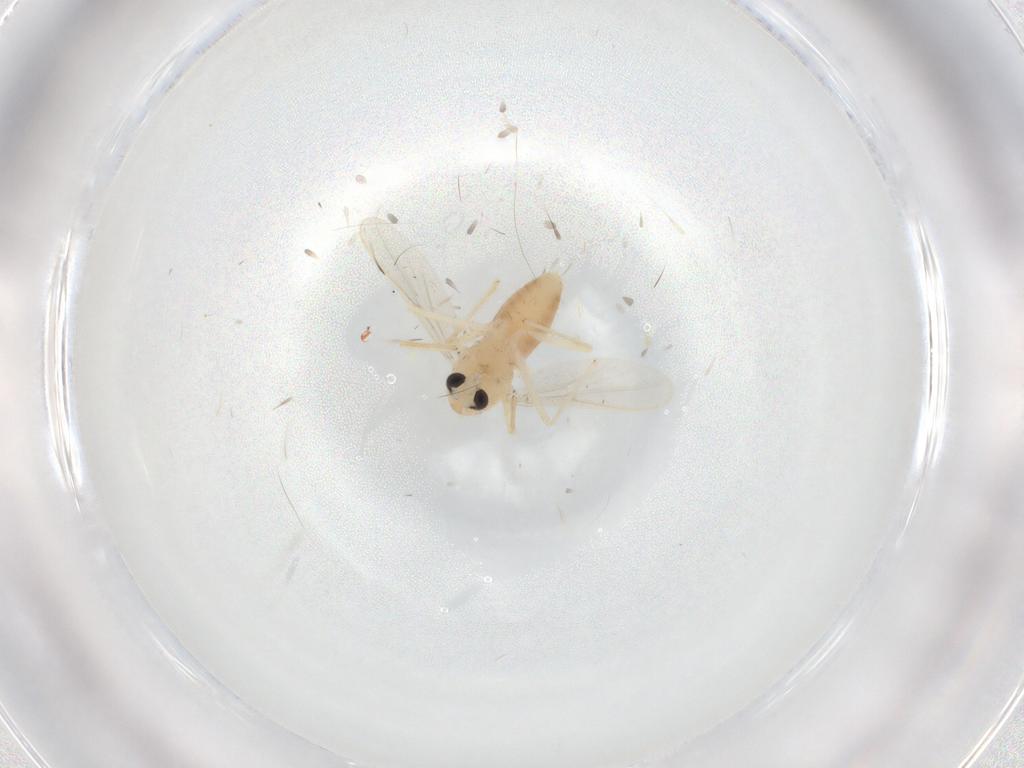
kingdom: Animalia
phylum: Arthropoda
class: Insecta
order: Diptera
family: Chironomidae
